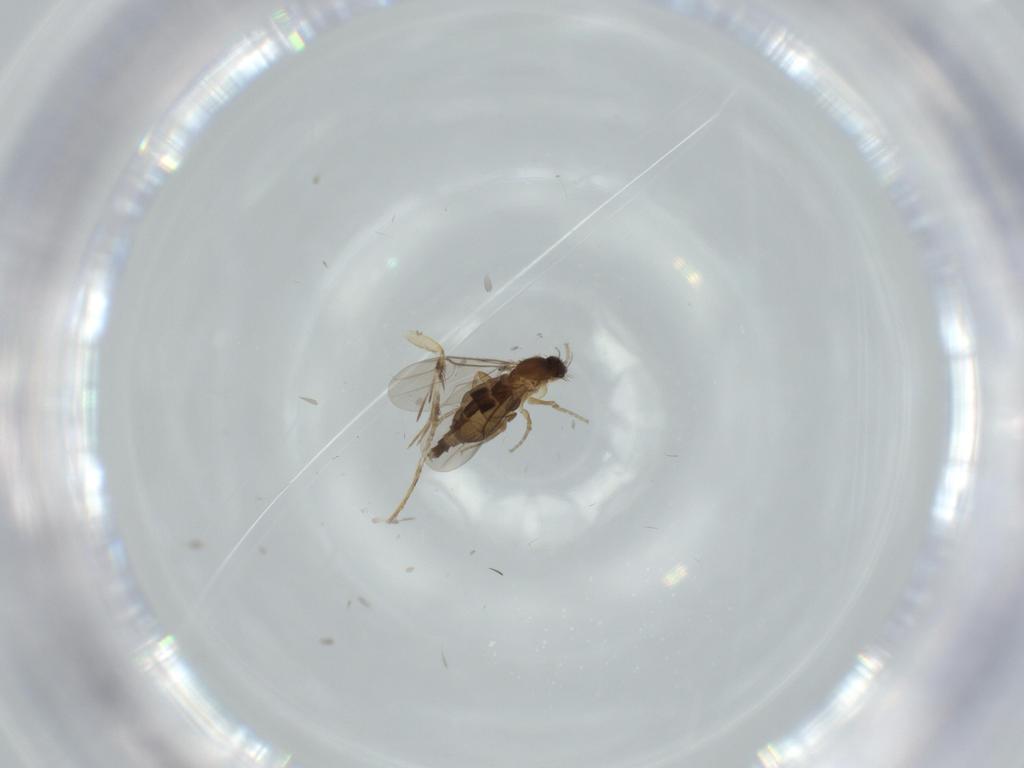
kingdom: Animalia
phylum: Arthropoda
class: Insecta
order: Diptera
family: Phoridae
